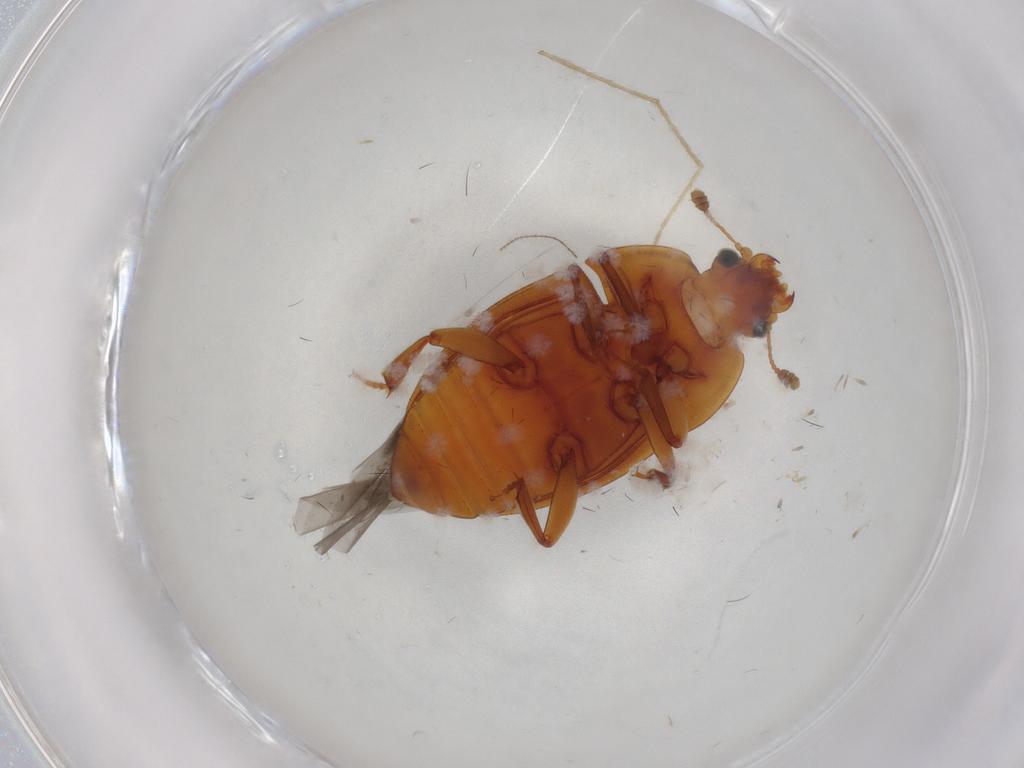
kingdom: Animalia
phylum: Arthropoda
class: Insecta
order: Coleoptera
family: Nitidulidae
